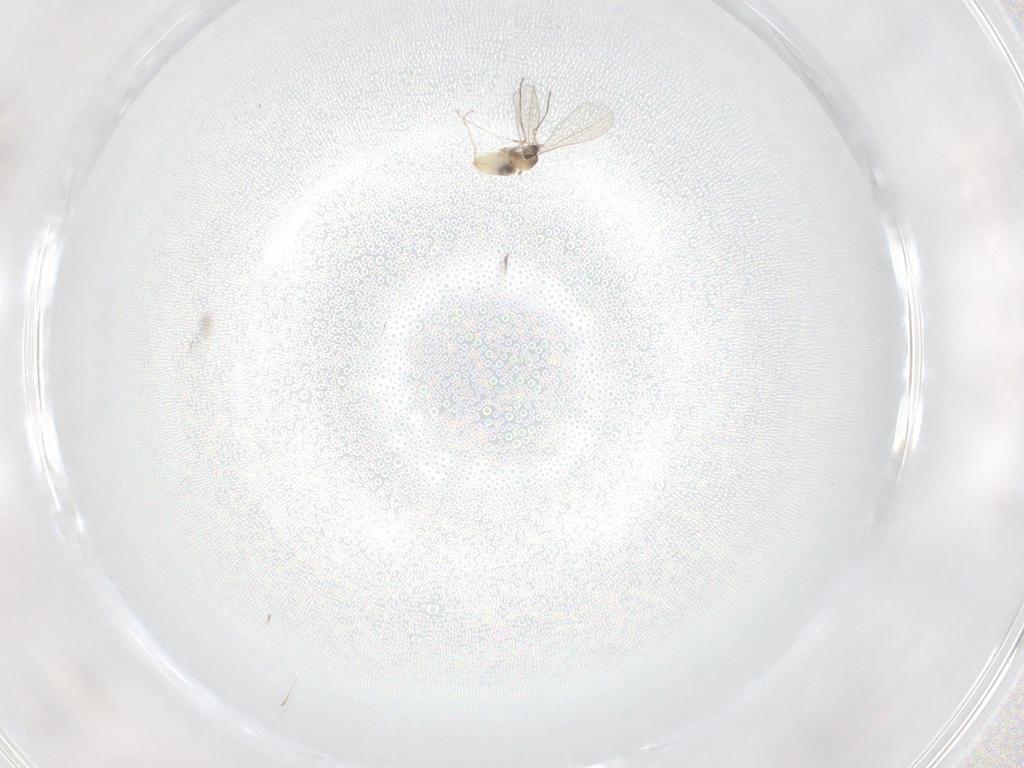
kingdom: Animalia
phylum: Arthropoda
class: Insecta
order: Diptera
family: Cecidomyiidae
